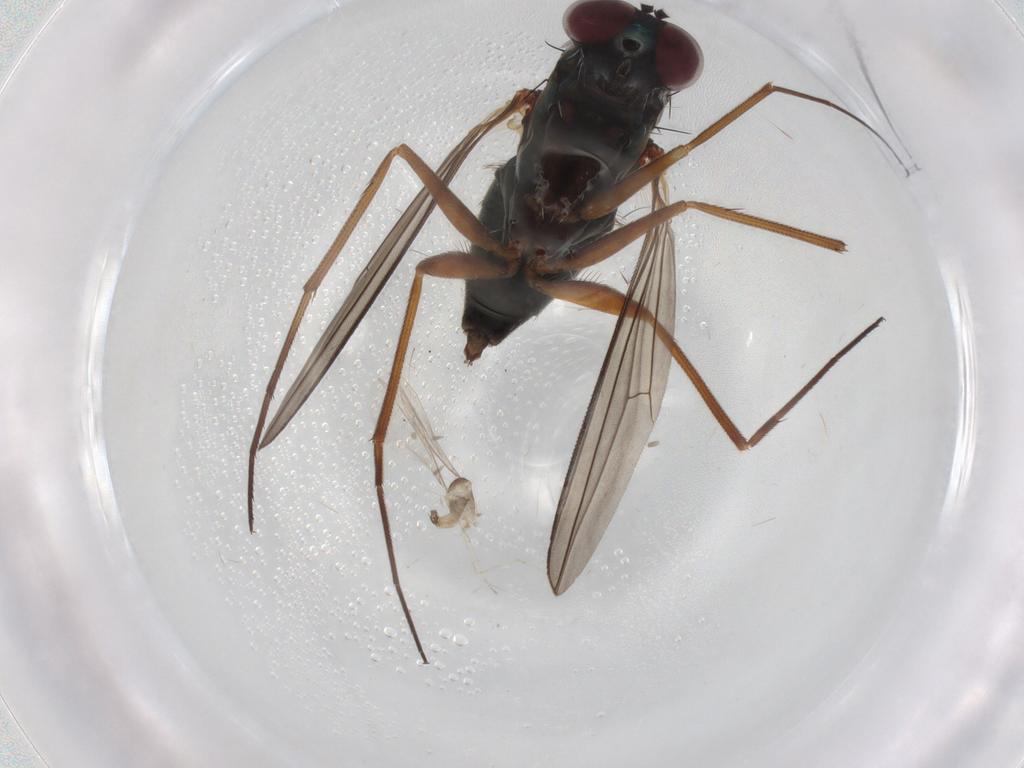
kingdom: Animalia
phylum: Arthropoda
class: Insecta
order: Diptera
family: Dolichopodidae
